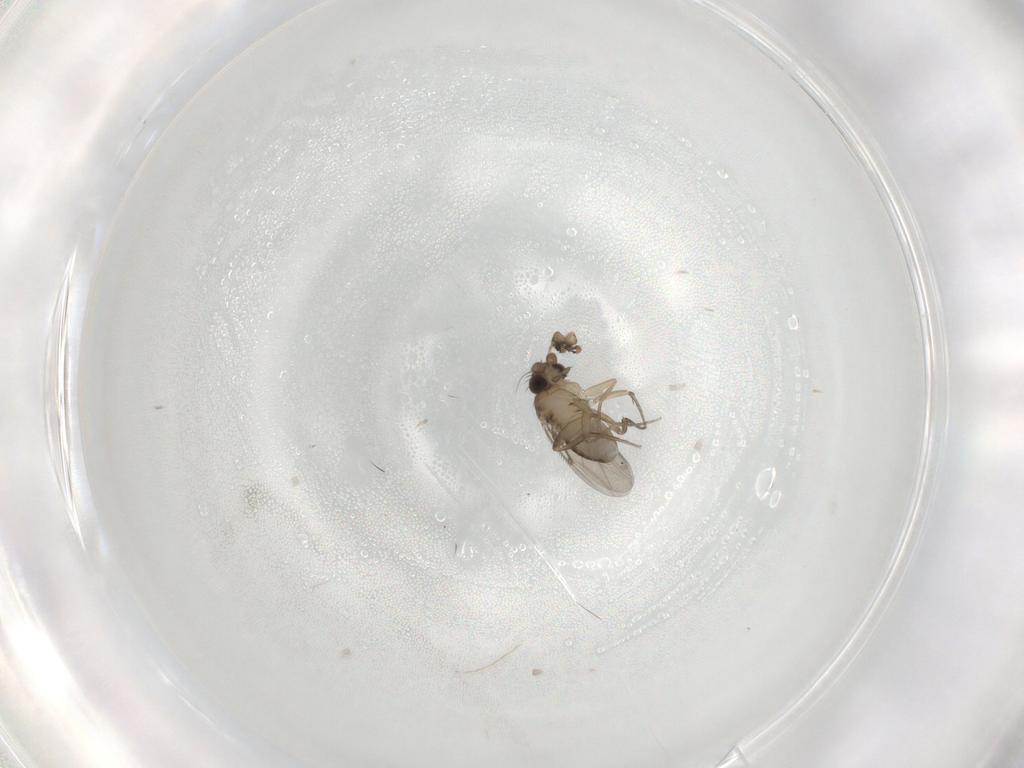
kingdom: Animalia
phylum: Arthropoda
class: Insecta
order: Diptera
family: Phoridae
